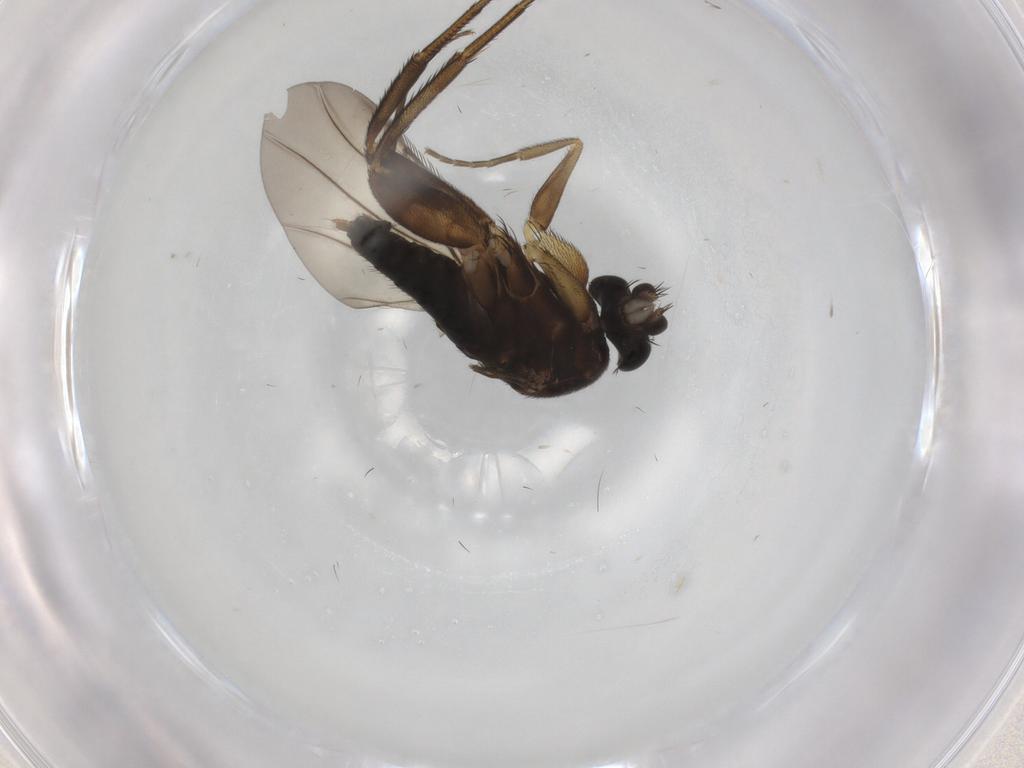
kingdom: Animalia
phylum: Arthropoda
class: Insecta
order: Diptera
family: Phoridae
